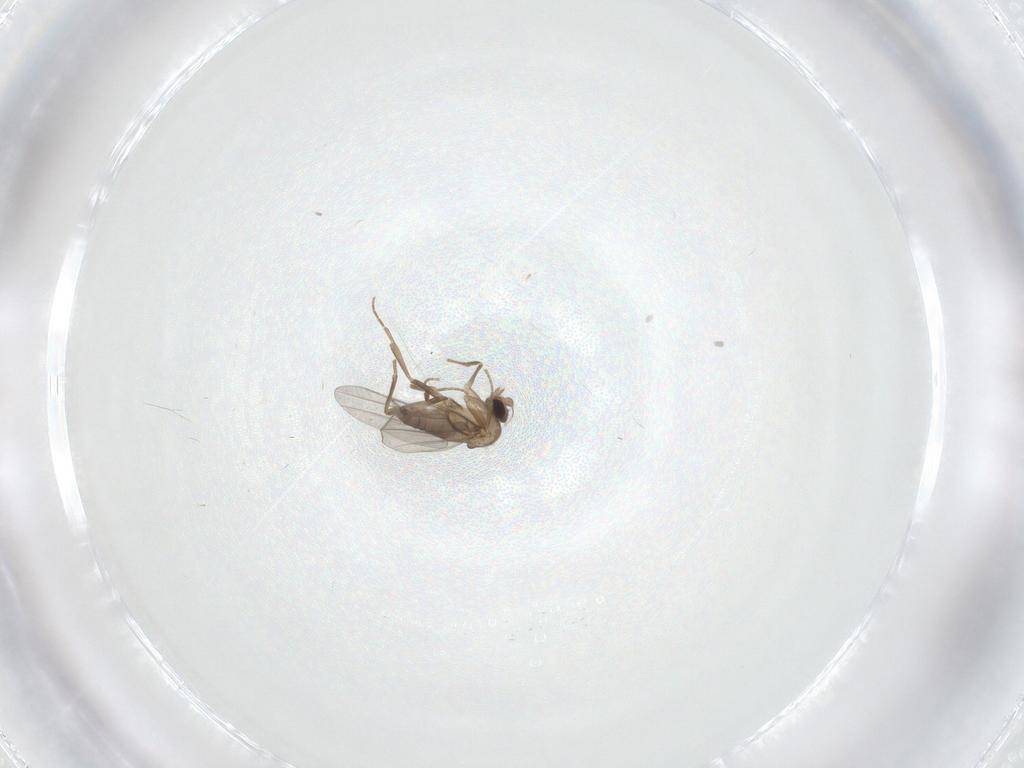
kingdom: Animalia
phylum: Arthropoda
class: Insecta
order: Diptera
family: Cecidomyiidae
